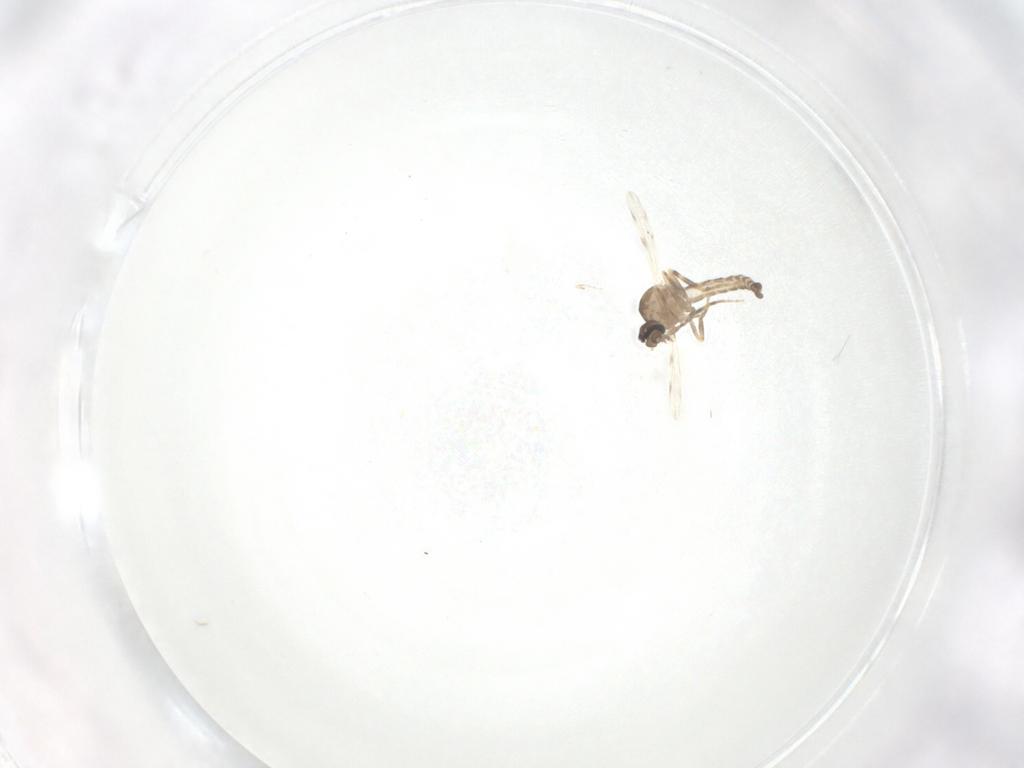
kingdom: Animalia
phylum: Arthropoda
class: Insecta
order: Diptera
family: Ceratopogonidae
